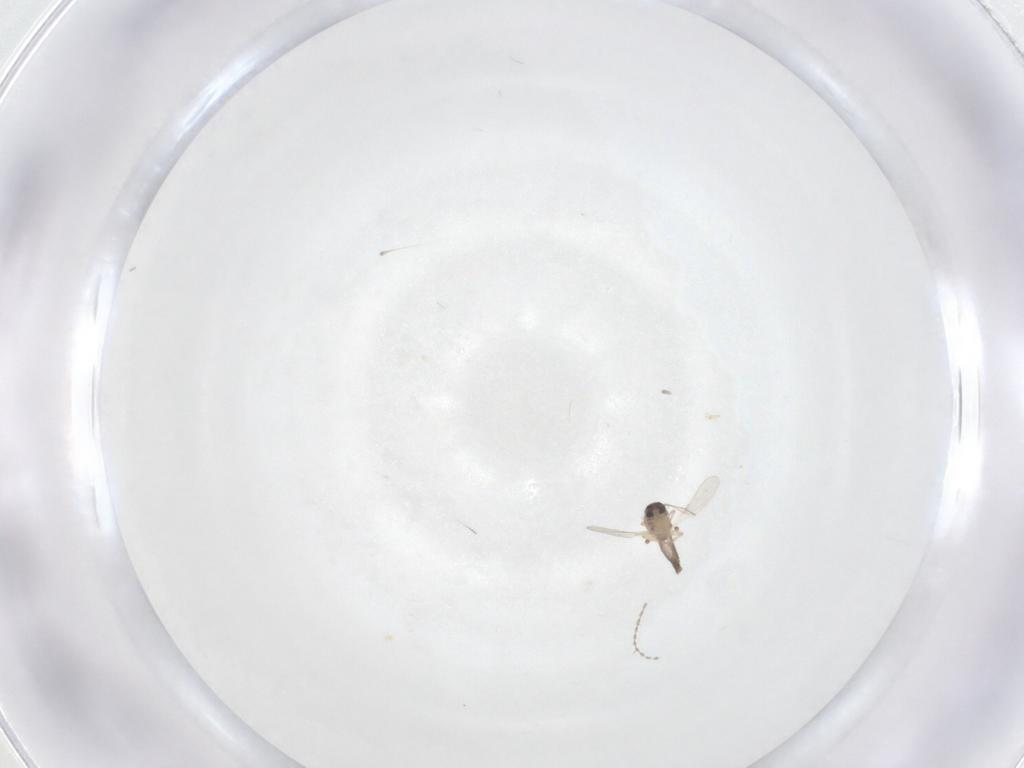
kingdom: Animalia
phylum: Arthropoda
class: Insecta
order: Diptera
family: Ceratopogonidae
